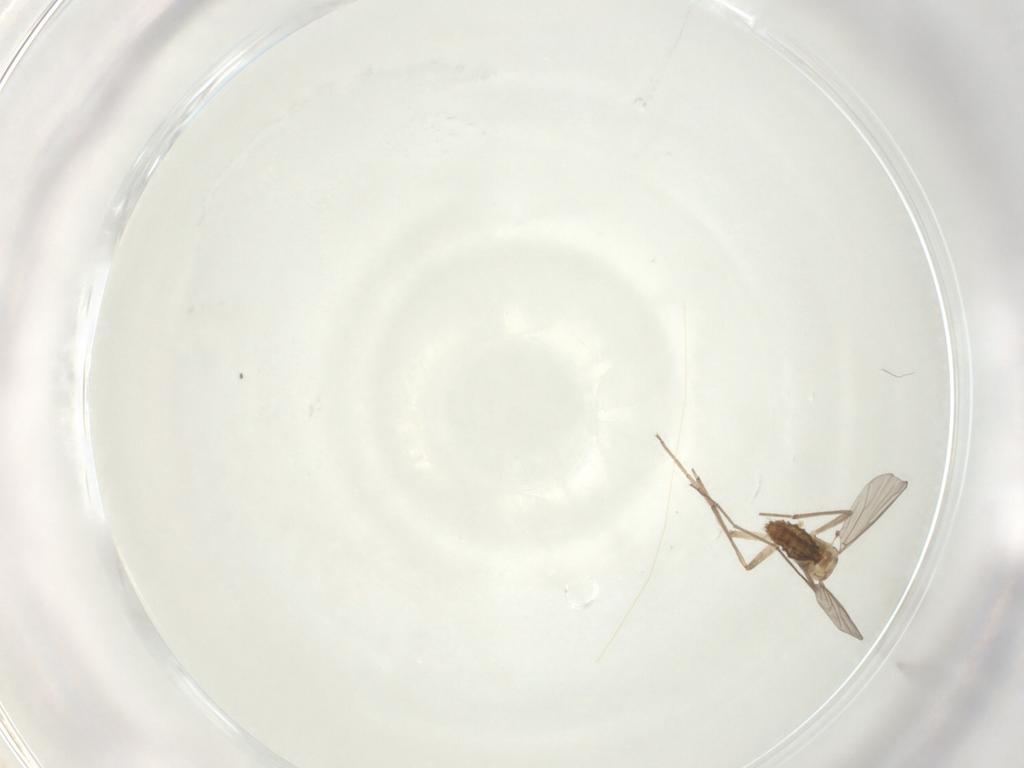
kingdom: Animalia
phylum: Arthropoda
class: Insecta
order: Diptera
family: Chironomidae
